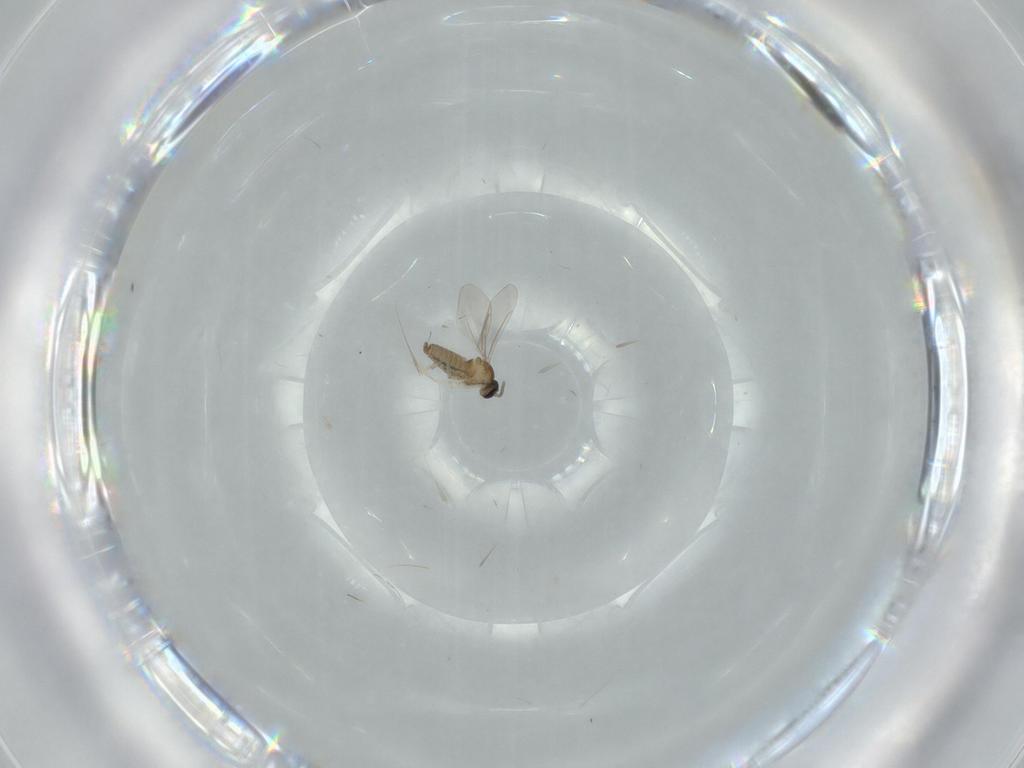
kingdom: Animalia
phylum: Arthropoda
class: Insecta
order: Diptera
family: Cecidomyiidae
